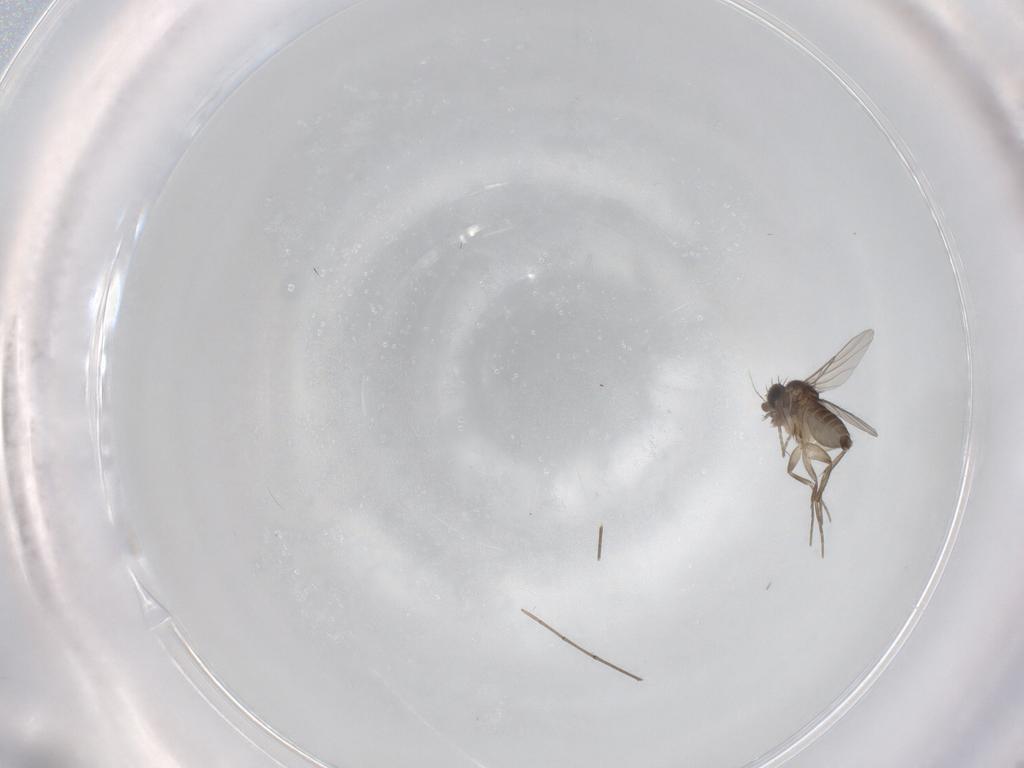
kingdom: Animalia
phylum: Arthropoda
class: Insecta
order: Diptera
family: Phoridae
